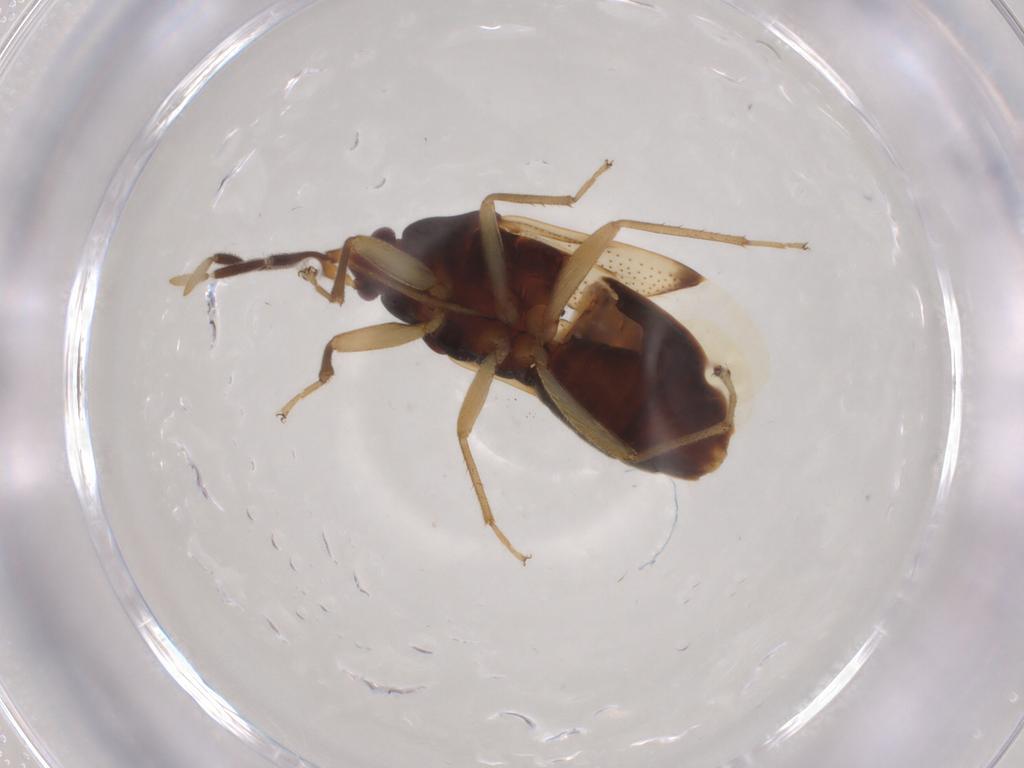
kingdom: Animalia
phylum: Arthropoda
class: Insecta
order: Hemiptera
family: Rhyparochromidae
